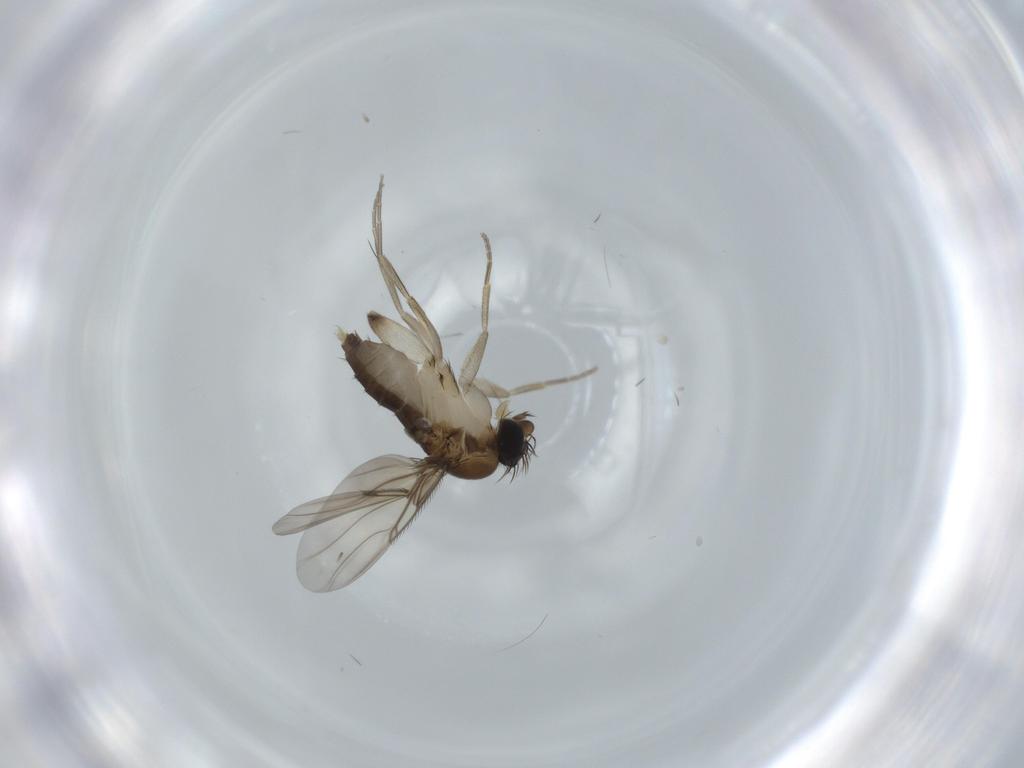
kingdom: Animalia
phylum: Arthropoda
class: Insecta
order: Diptera
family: Phoridae
